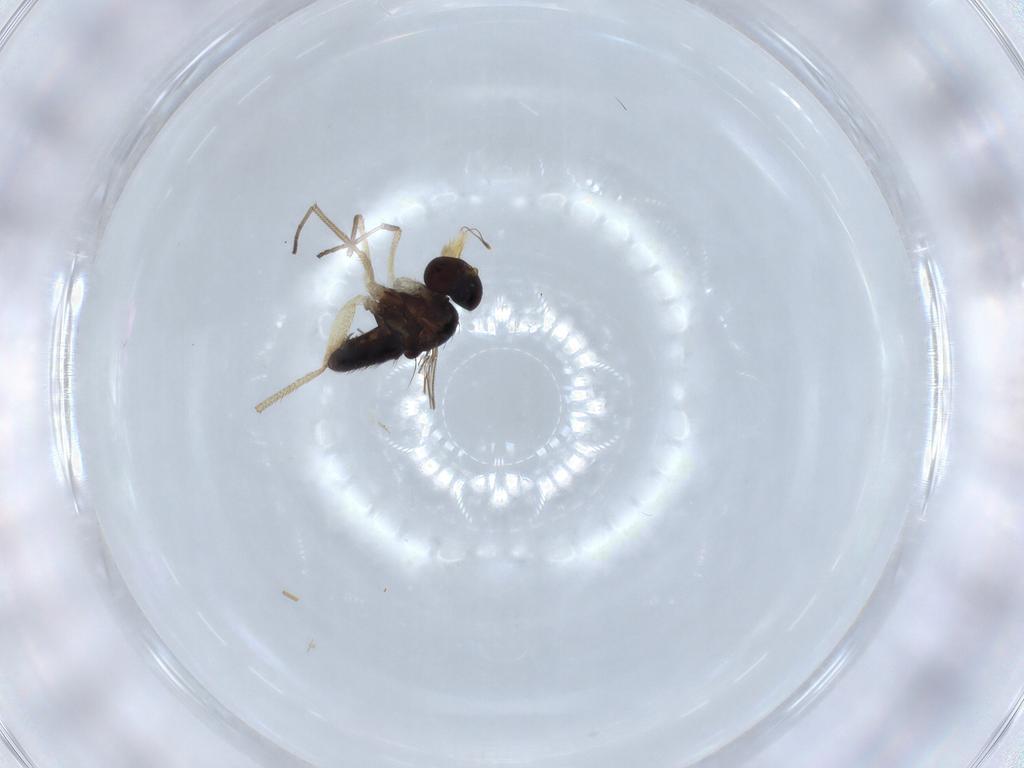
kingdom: Animalia
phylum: Arthropoda
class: Insecta
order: Diptera
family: Dolichopodidae
